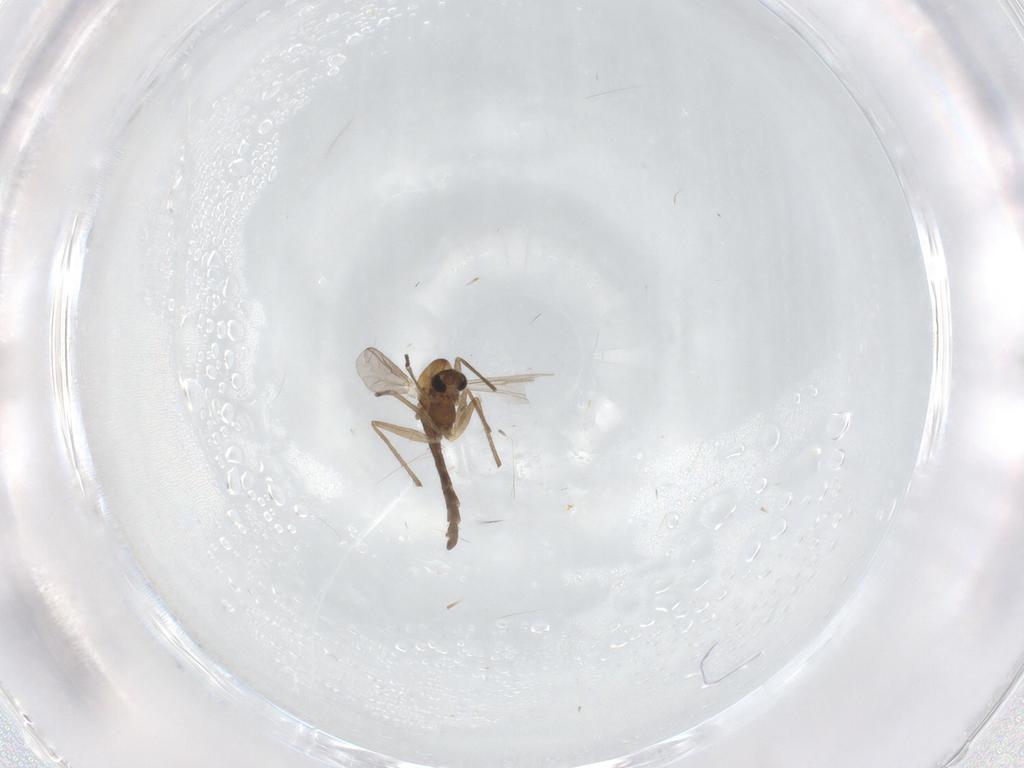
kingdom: Animalia
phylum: Arthropoda
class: Insecta
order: Diptera
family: Chironomidae
